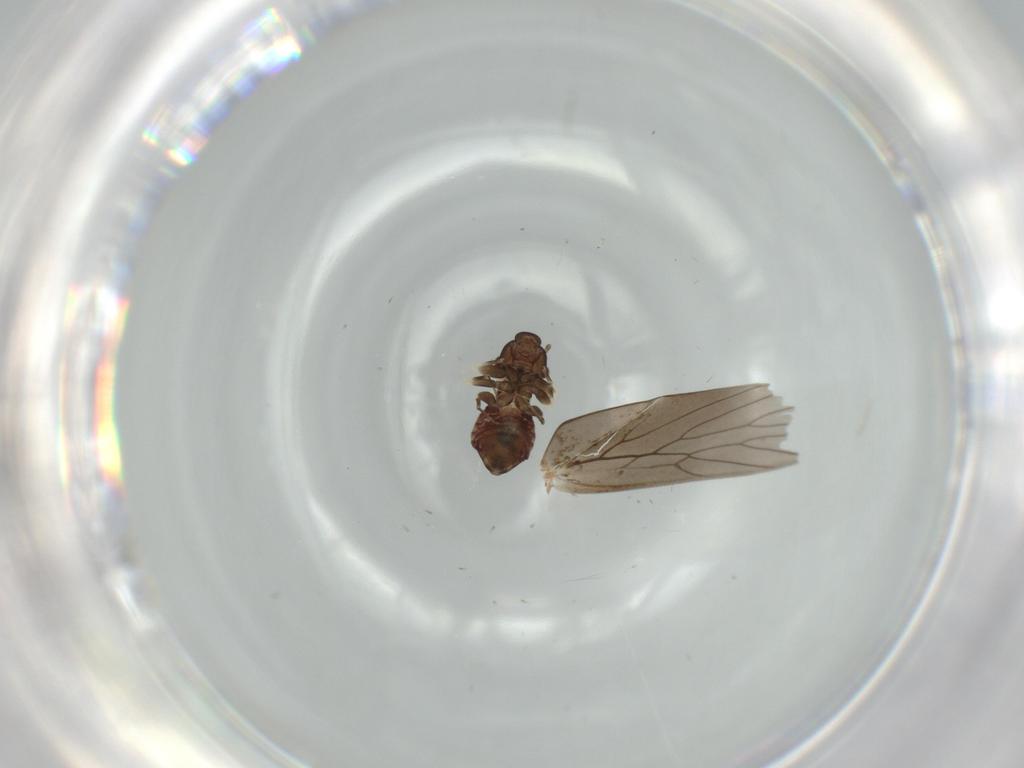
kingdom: Animalia
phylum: Arthropoda
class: Insecta
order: Psocodea
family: Lepidopsocidae
